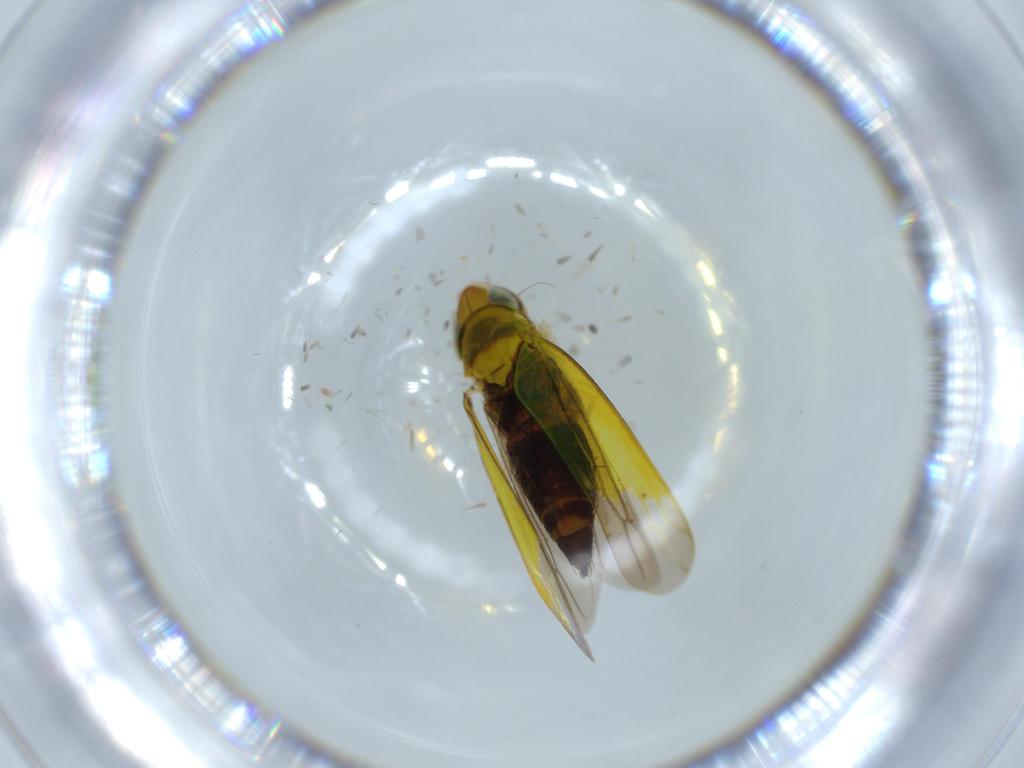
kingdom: Animalia
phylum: Arthropoda
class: Insecta
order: Hemiptera
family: Cicadellidae
